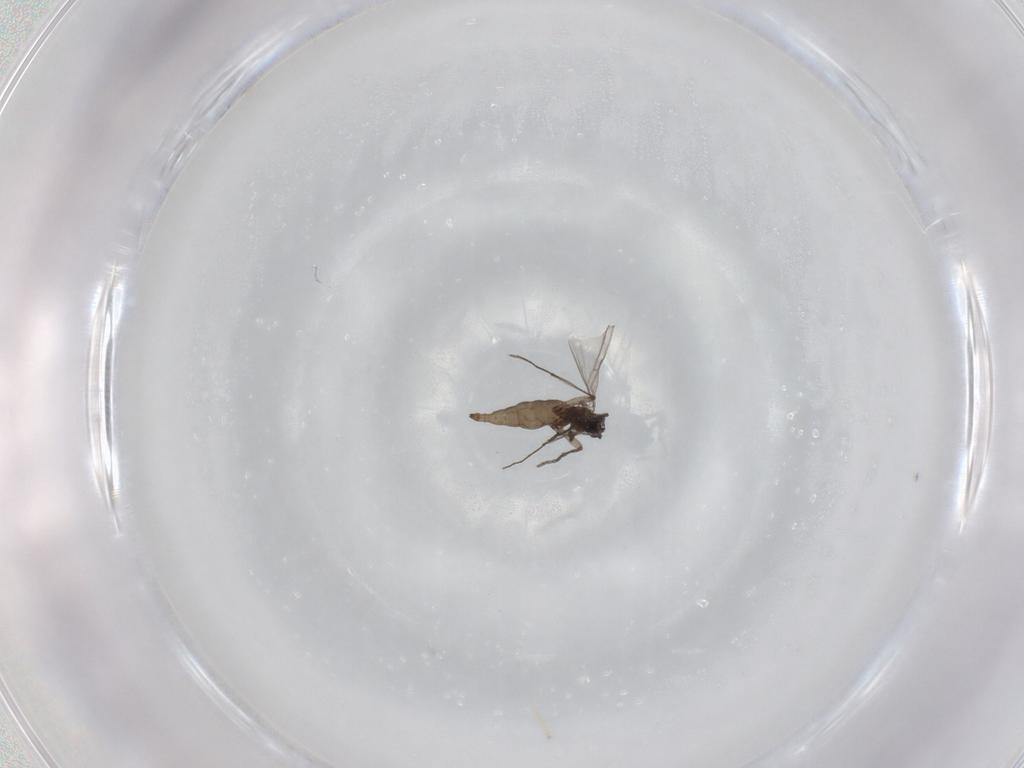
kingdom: Animalia
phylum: Arthropoda
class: Insecta
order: Diptera
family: Sciaridae
